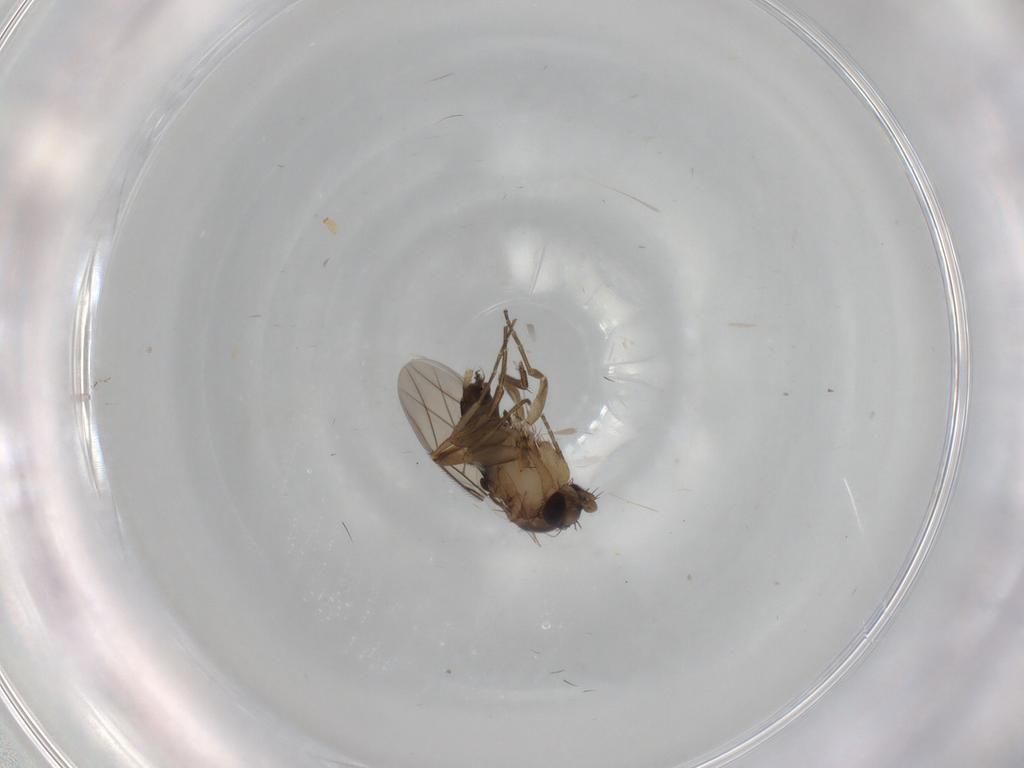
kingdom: Animalia
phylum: Arthropoda
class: Insecta
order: Diptera
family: Phoridae
